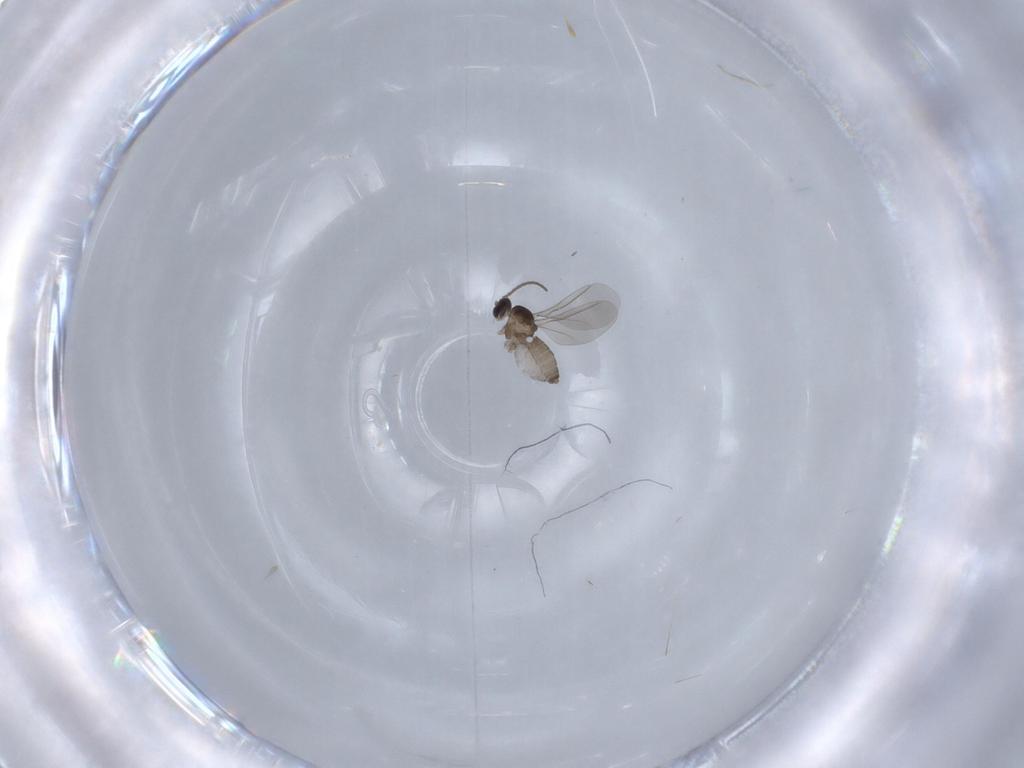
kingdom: Animalia
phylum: Arthropoda
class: Insecta
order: Diptera
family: Cecidomyiidae
